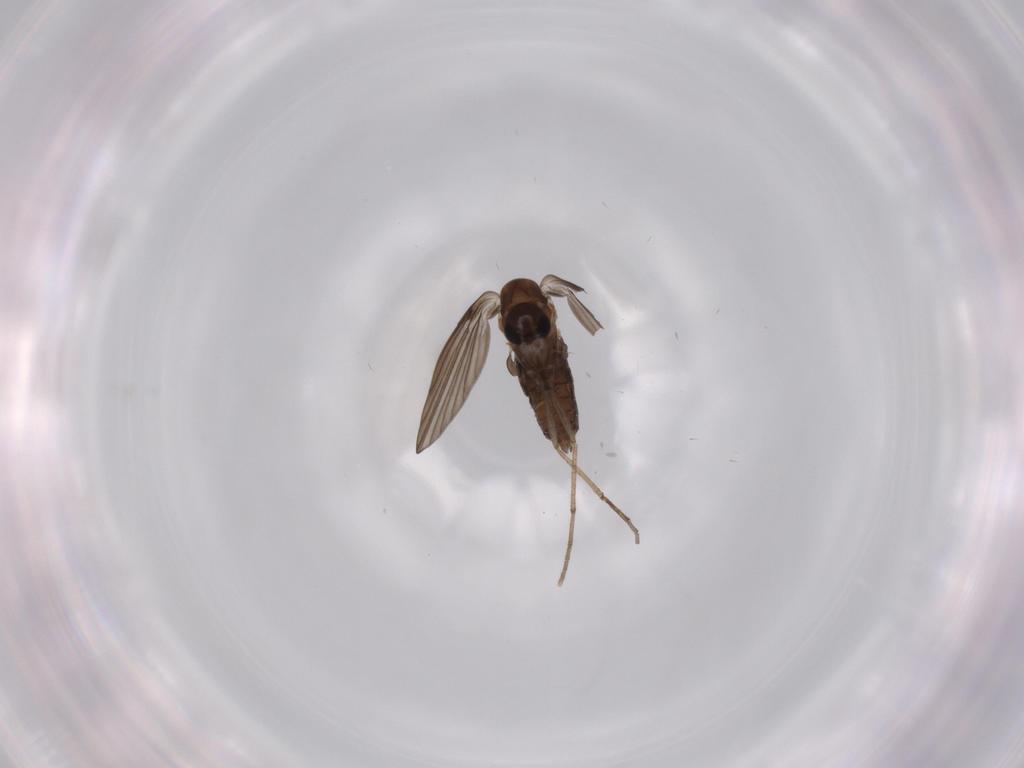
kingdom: Animalia
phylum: Arthropoda
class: Insecta
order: Diptera
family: Psychodidae
